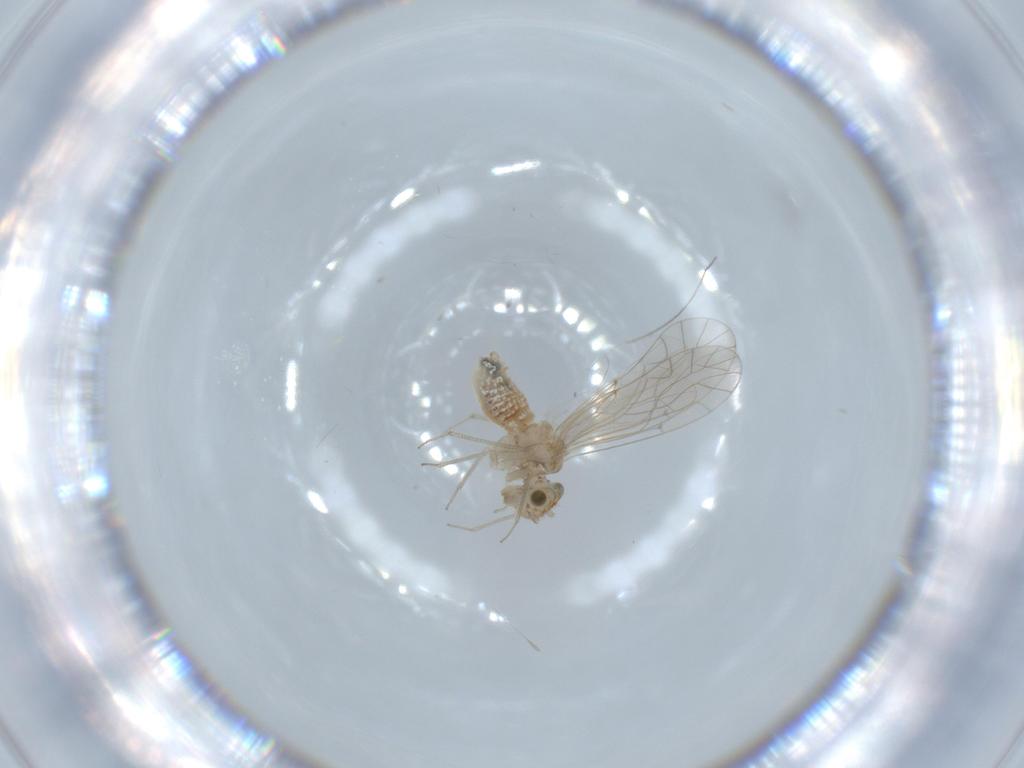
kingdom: Animalia
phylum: Arthropoda
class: Insecta
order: Psocodea
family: Lachesillidae
